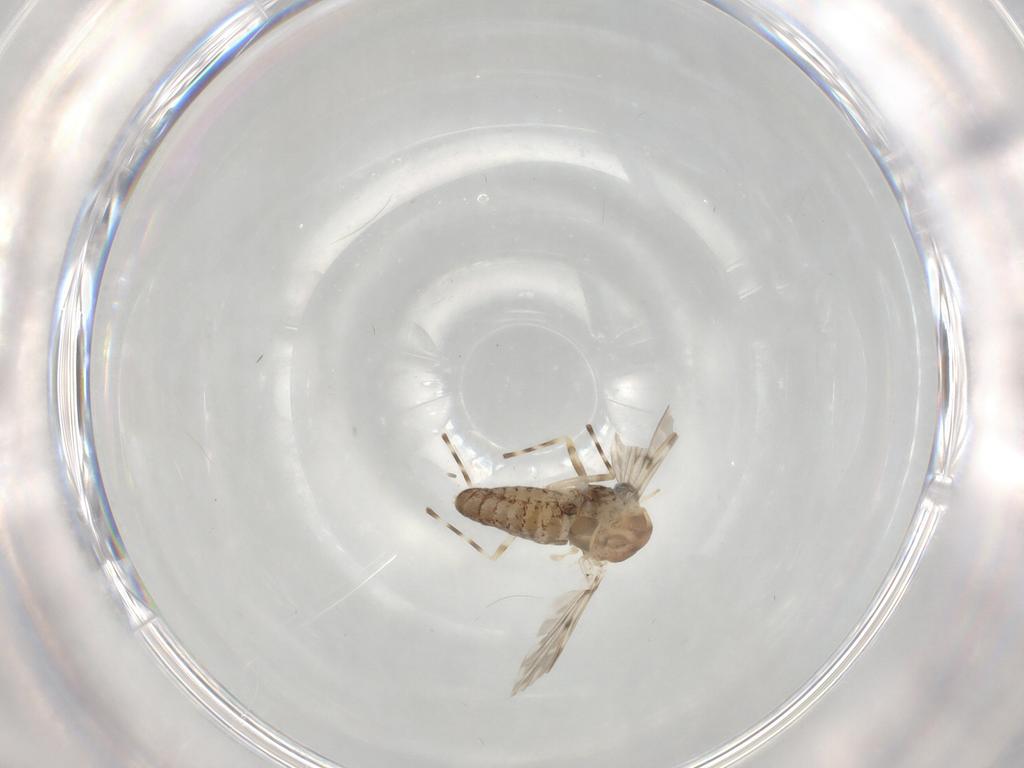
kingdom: Animalia
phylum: Arthropoda
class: Insecta
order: Diptera
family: Chironomidae
